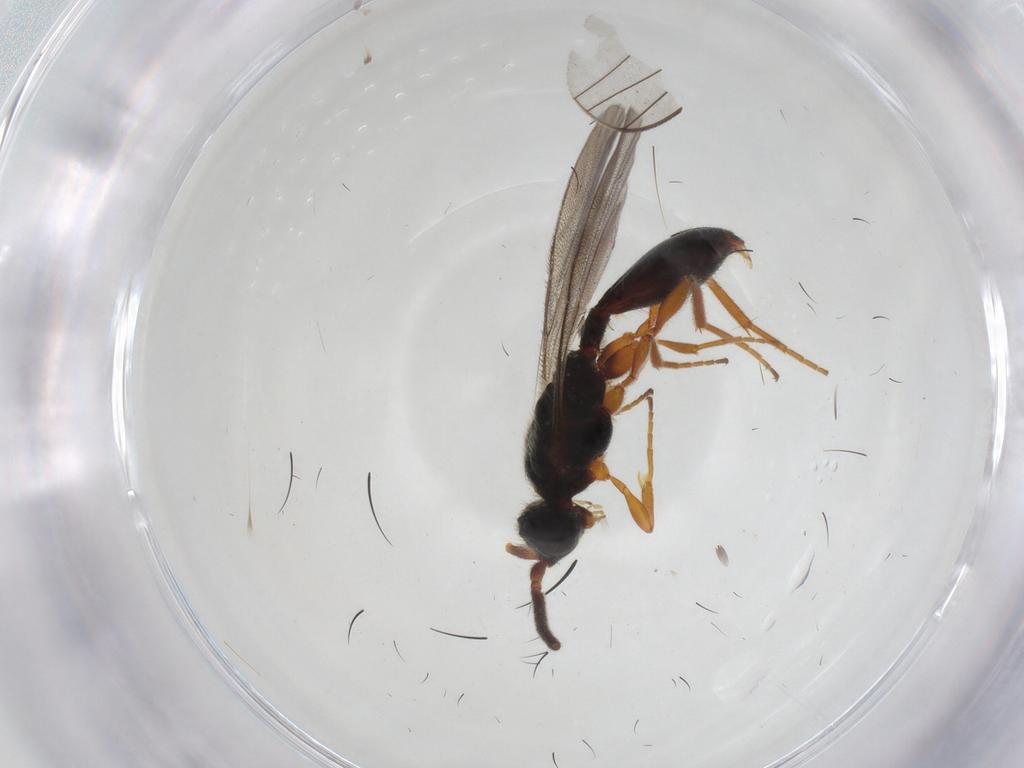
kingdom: Animalia
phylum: Arthropoda
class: Insecta
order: Hymenoptera
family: Diapriidae
